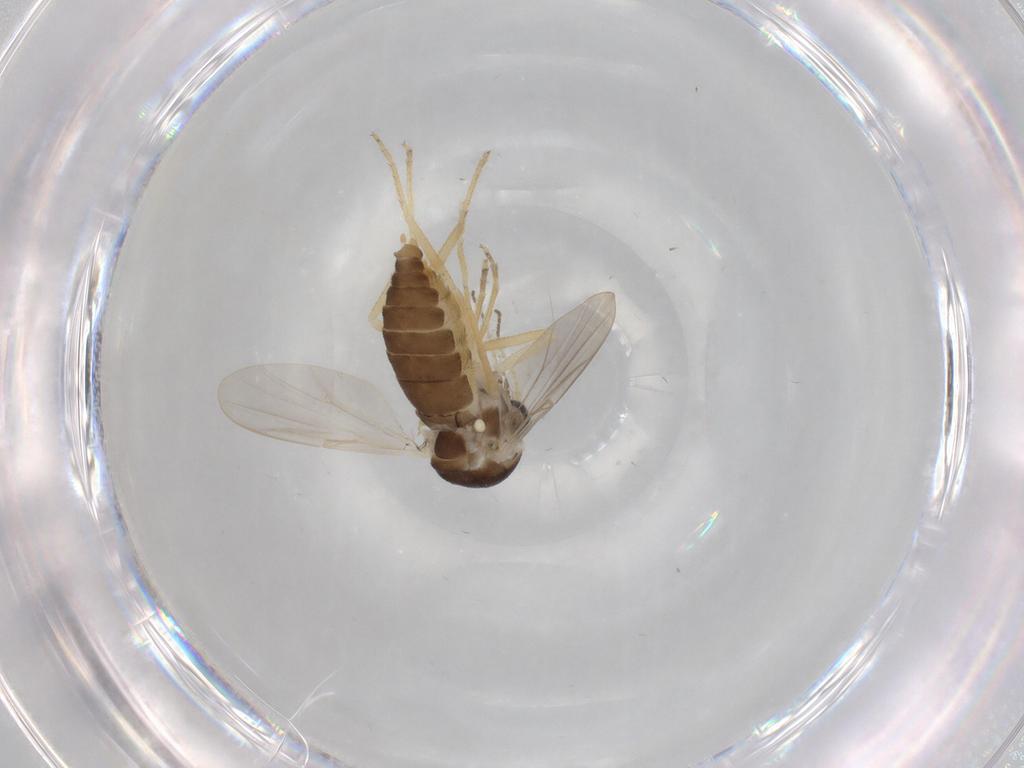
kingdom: Animalia
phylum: Arthropoda
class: Insecta
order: Diptera
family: Ceratopogonidae
